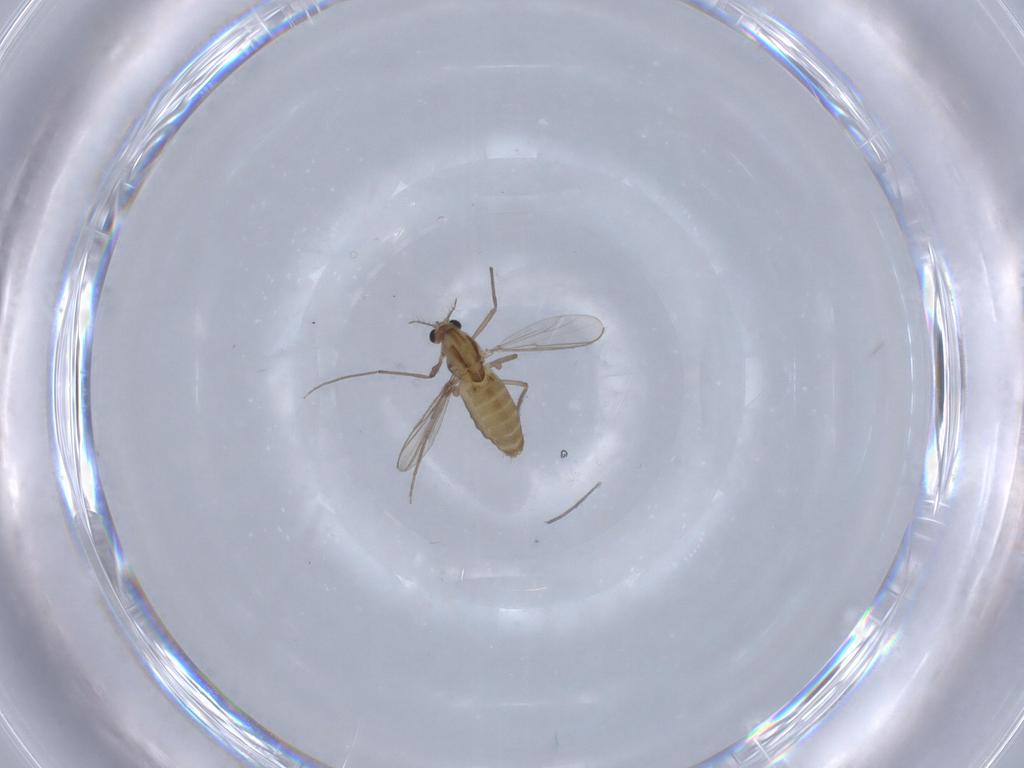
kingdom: Animalia
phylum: Arthropoda
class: Insecta
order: Diptera
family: Chironomidae
